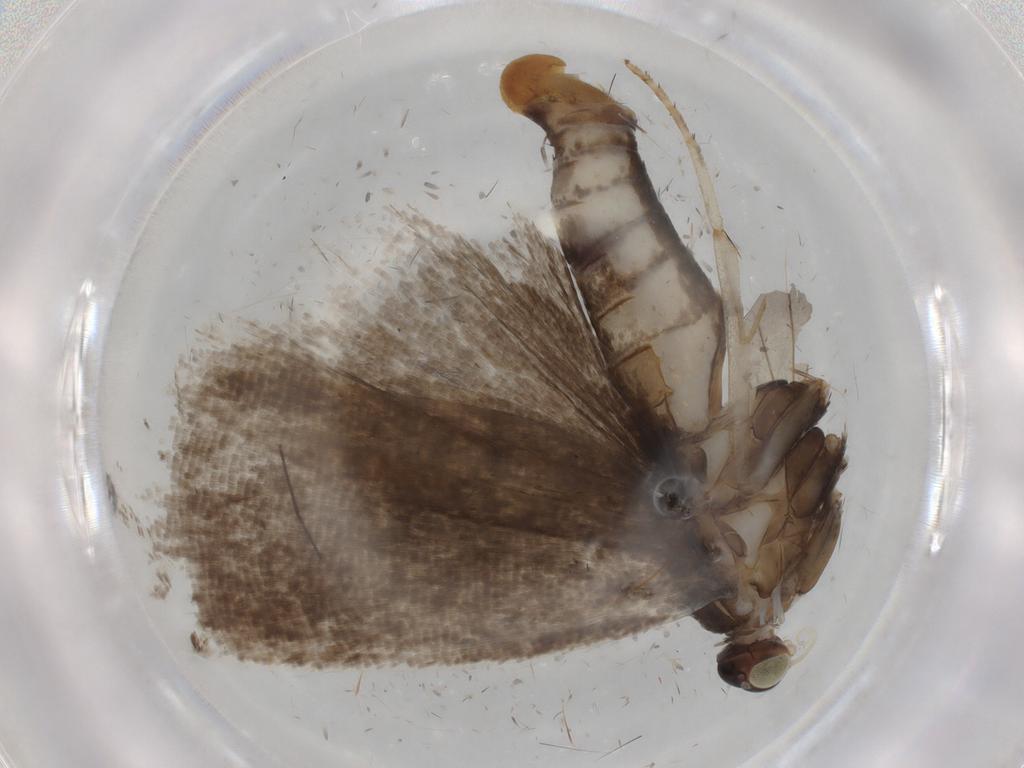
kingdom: Animalia
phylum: Arthropoda
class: Insecta
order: Lepidoptera
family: Tortricidae
